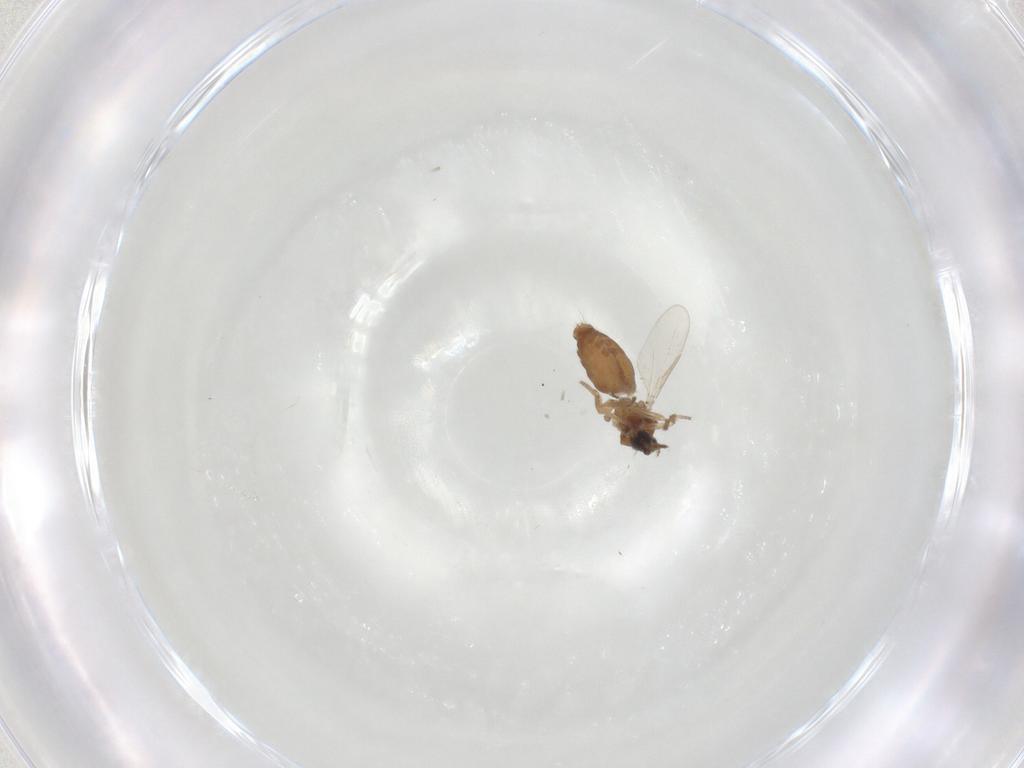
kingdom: Animalia
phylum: Arthropoda
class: Insecta
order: Diptera
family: Ceratopogonidae
